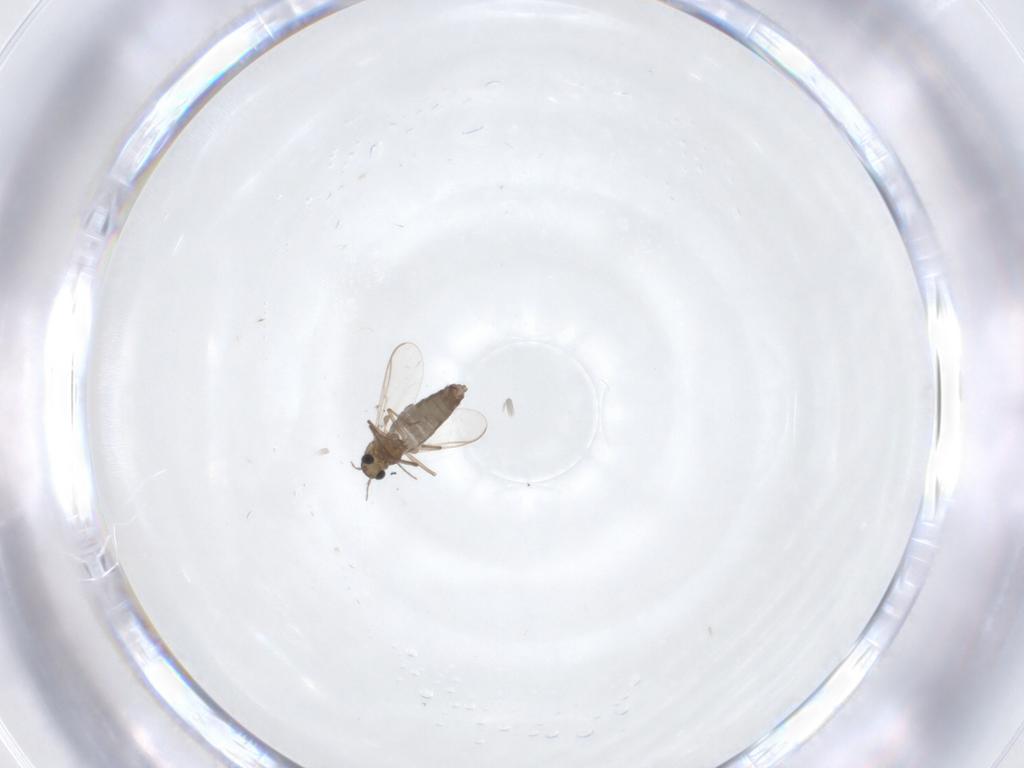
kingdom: Animalia
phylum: Arthropoda
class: Insecta
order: Diptera
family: Chironomidae
